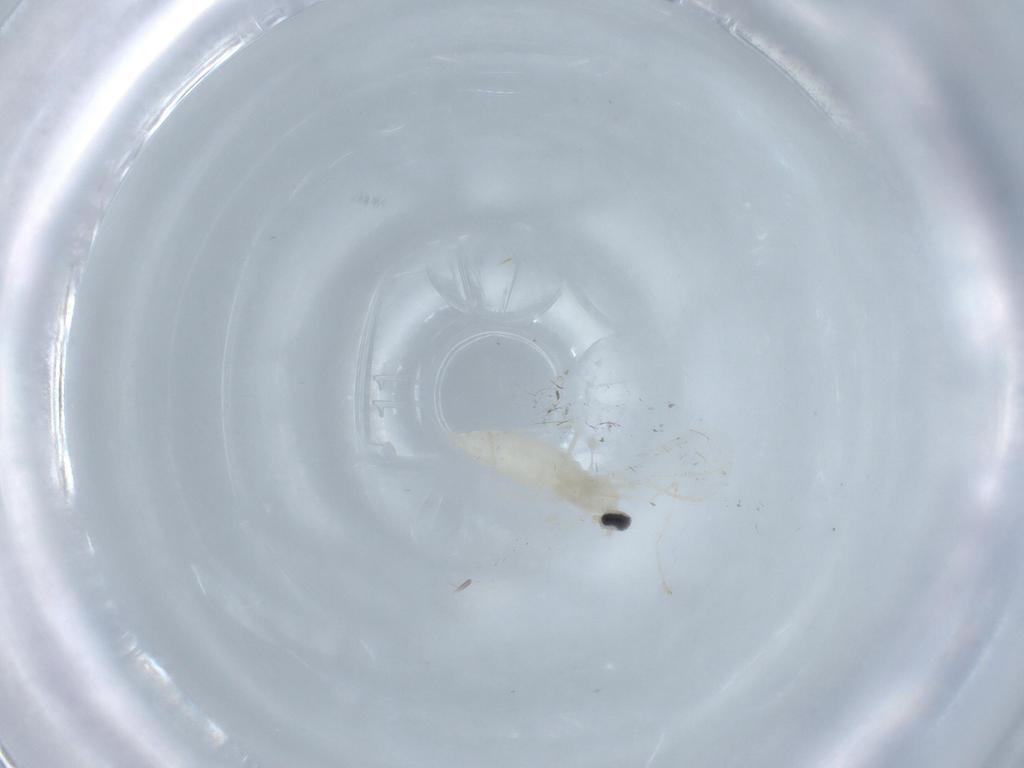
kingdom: Animalia
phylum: Arthropoda
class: Insecta
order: Diptera
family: Cecidomyiidae
